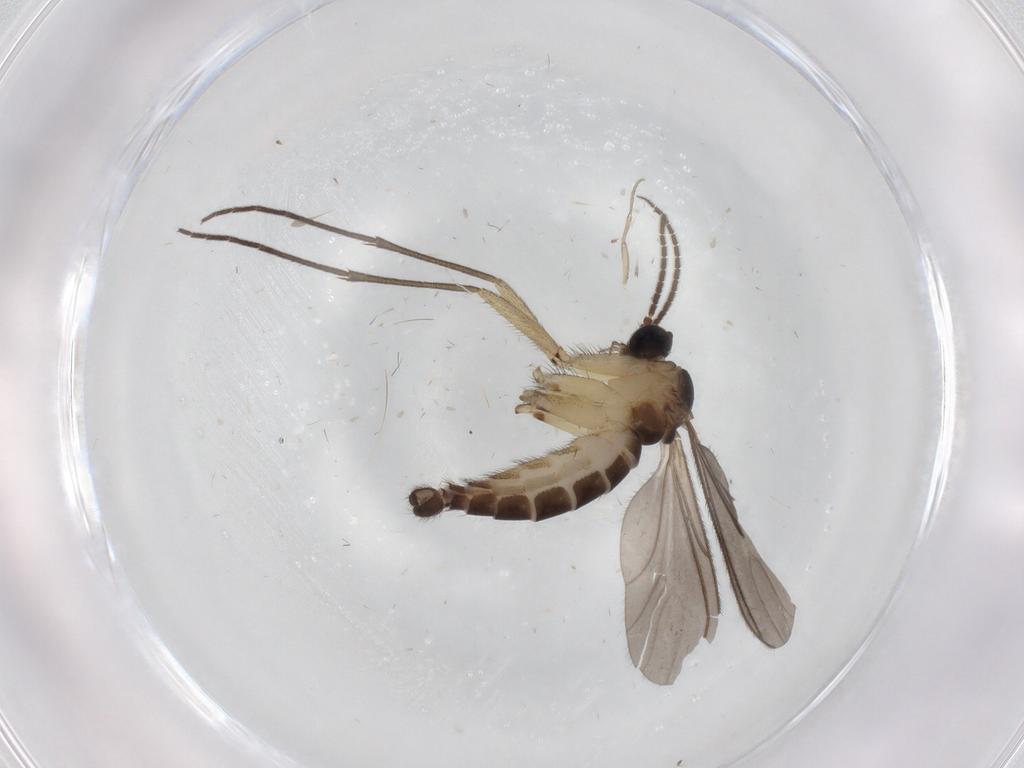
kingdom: Animalia
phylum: Arthropoda
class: Insecta
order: Diptera
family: Sciaridae
